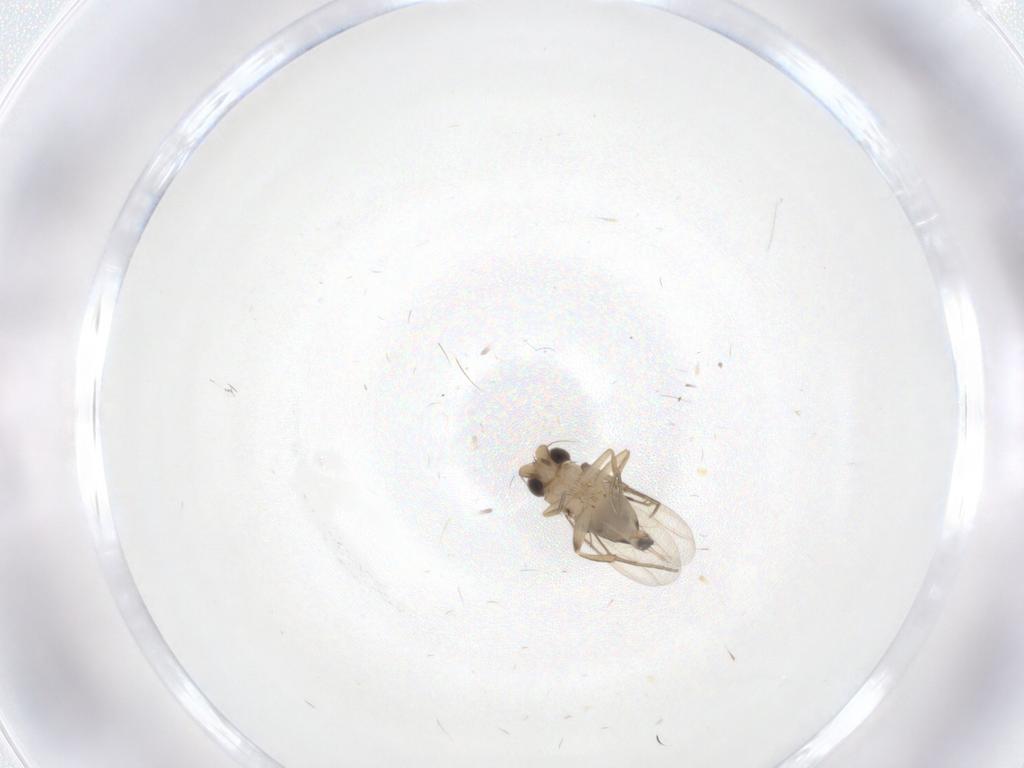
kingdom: Animalia
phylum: Arthropoda
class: Insecta
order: Diptera
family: Phoridae
